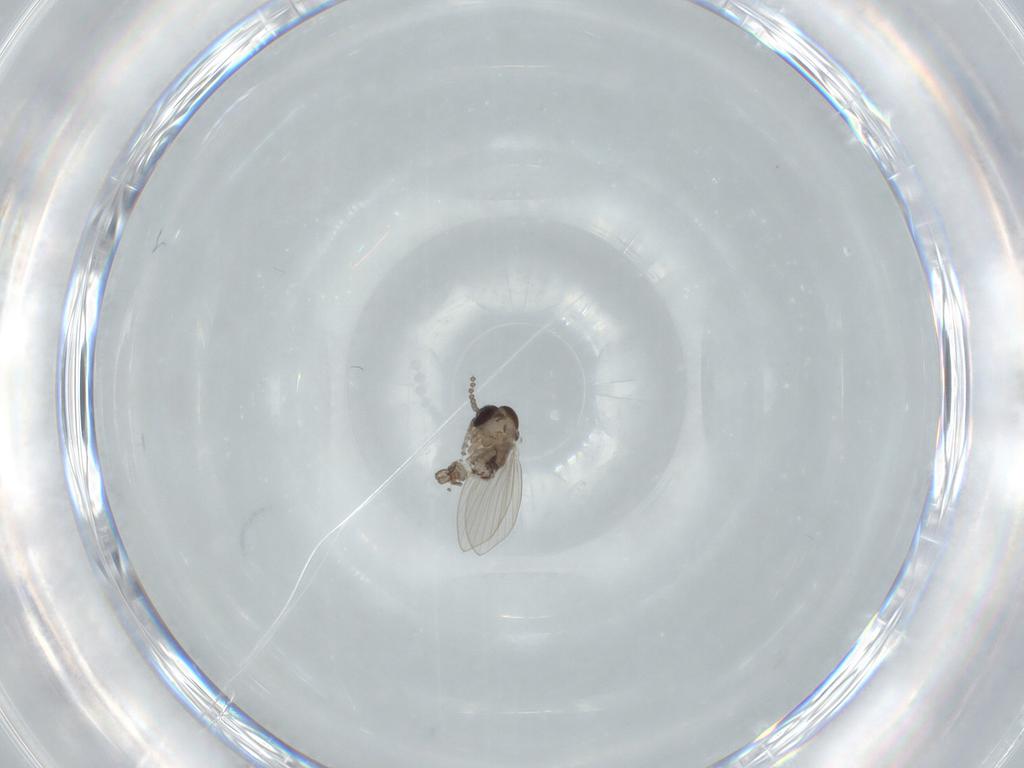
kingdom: Animalia
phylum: Arthropoda
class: Insecta
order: Diptera
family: Psychodidae
